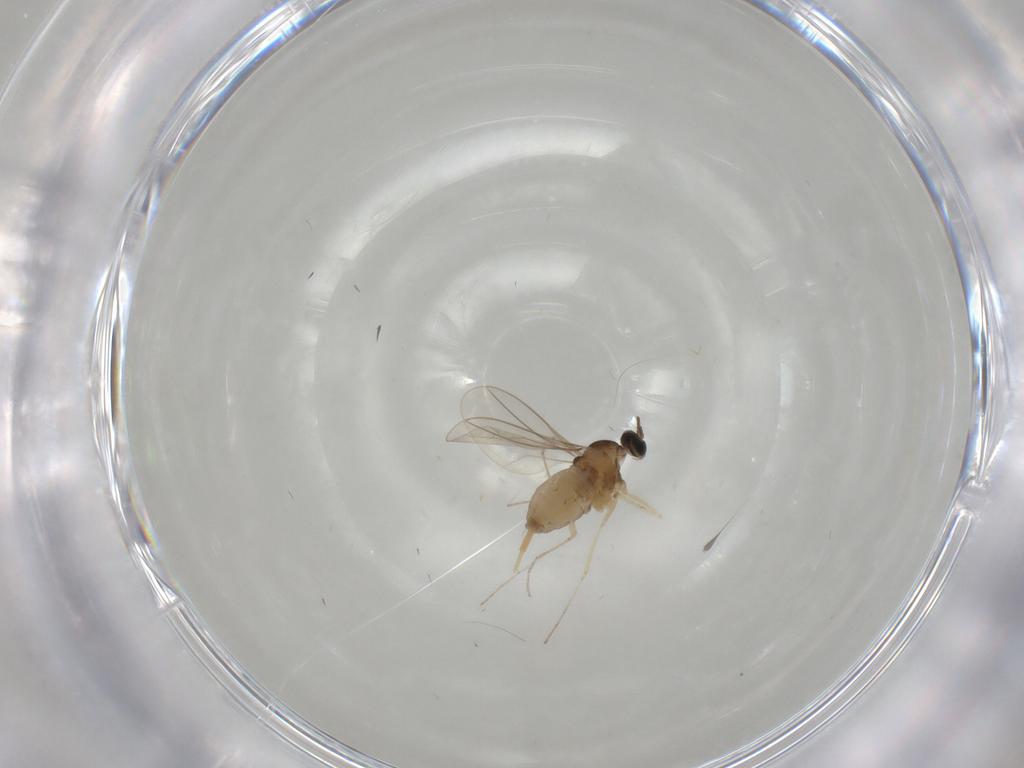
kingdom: Animalia
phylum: Arthropoda
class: Insecta
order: Diptera
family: Cecidomyiidae
